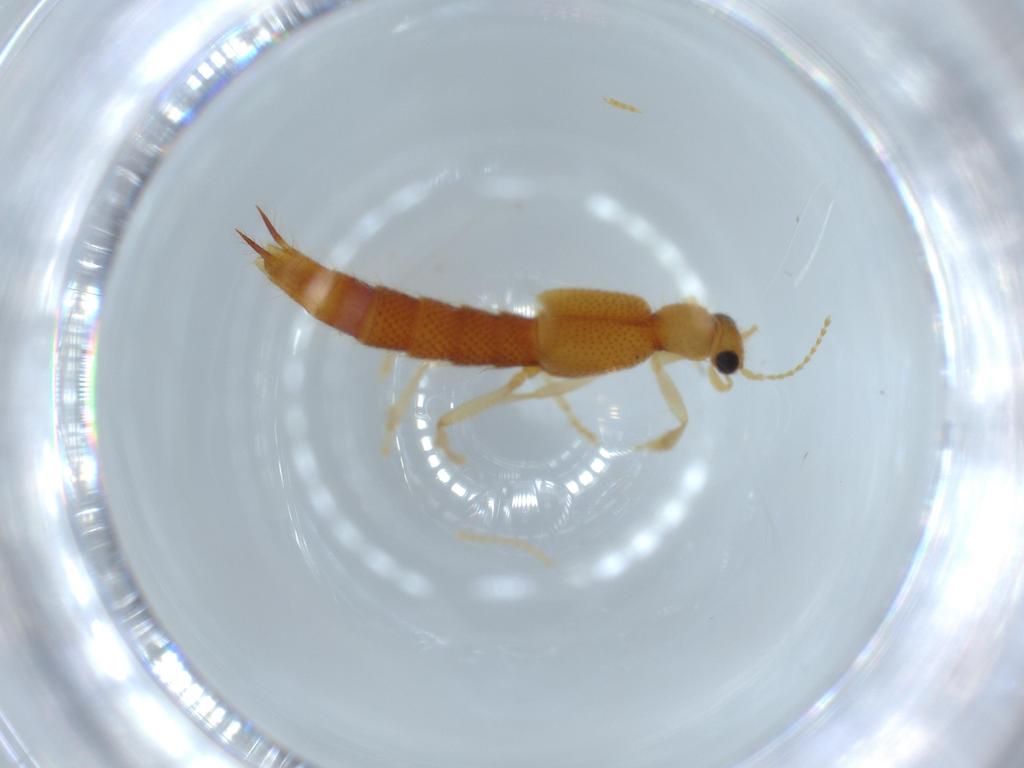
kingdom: Animalia
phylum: Arthropoda
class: Insecta
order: Coleoptera
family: Staphylinidae
